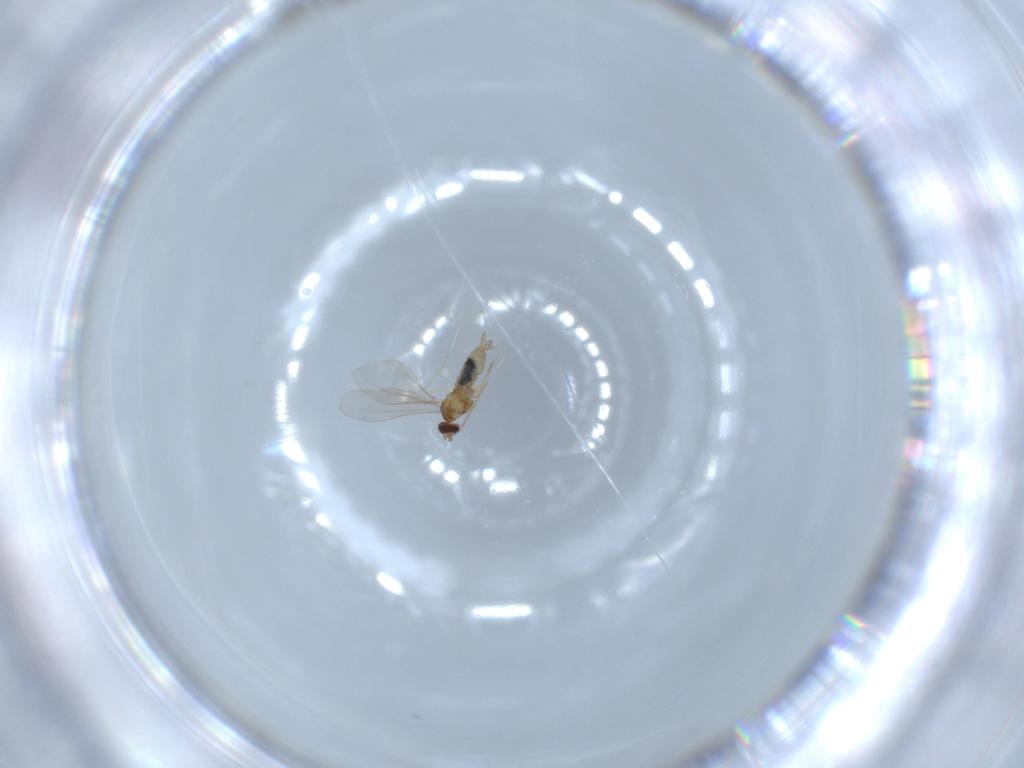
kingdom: Animalia
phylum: Arthropoda
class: Insecta
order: Diptera
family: Cecidomyiidae
